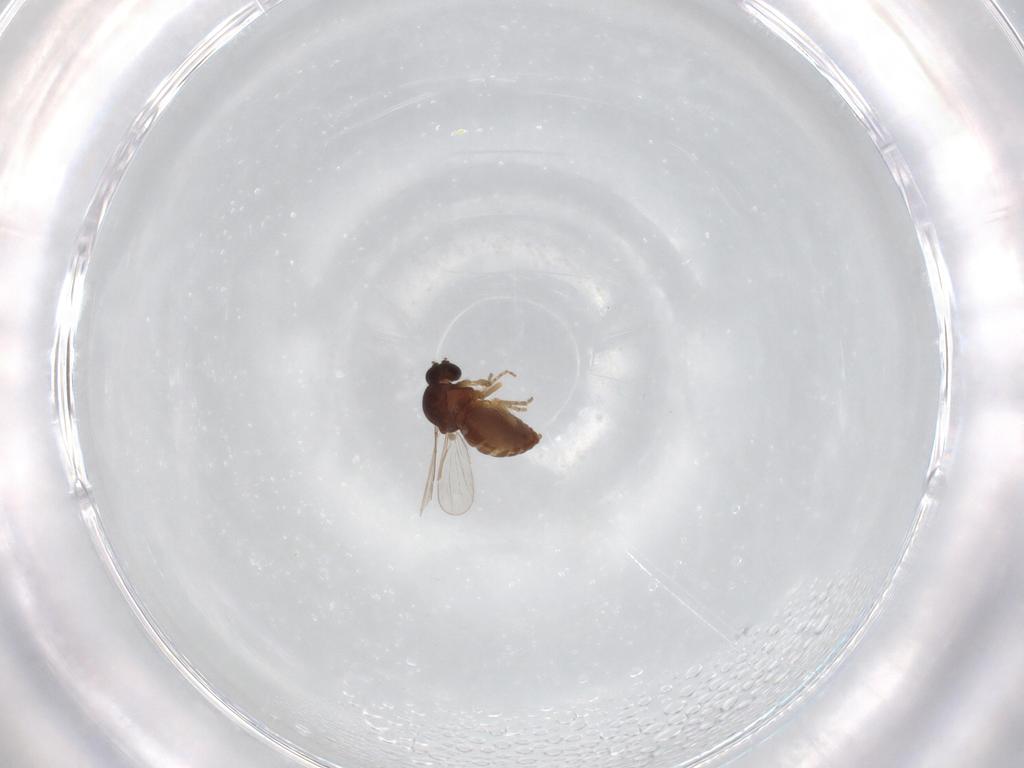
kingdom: Animalia
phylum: Arthropoda
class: Insecta
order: Diptera
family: Ceratopogonidae
